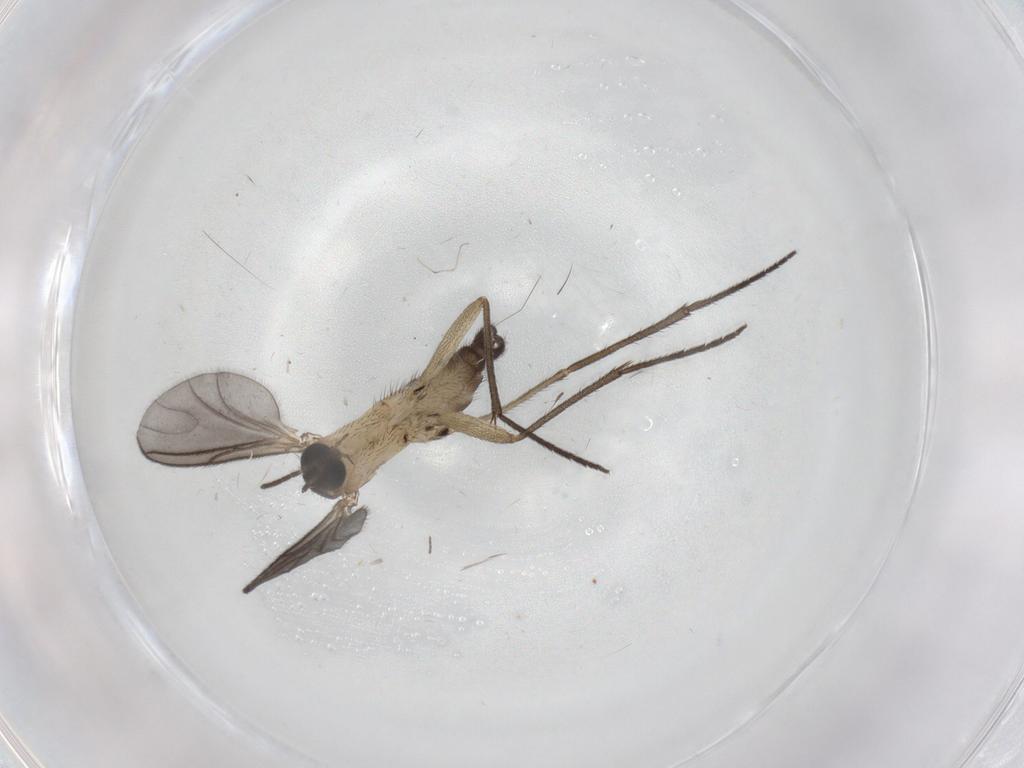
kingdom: Animalia
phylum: Arthropoda
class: Insecta
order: Diptera
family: Sciaridae
